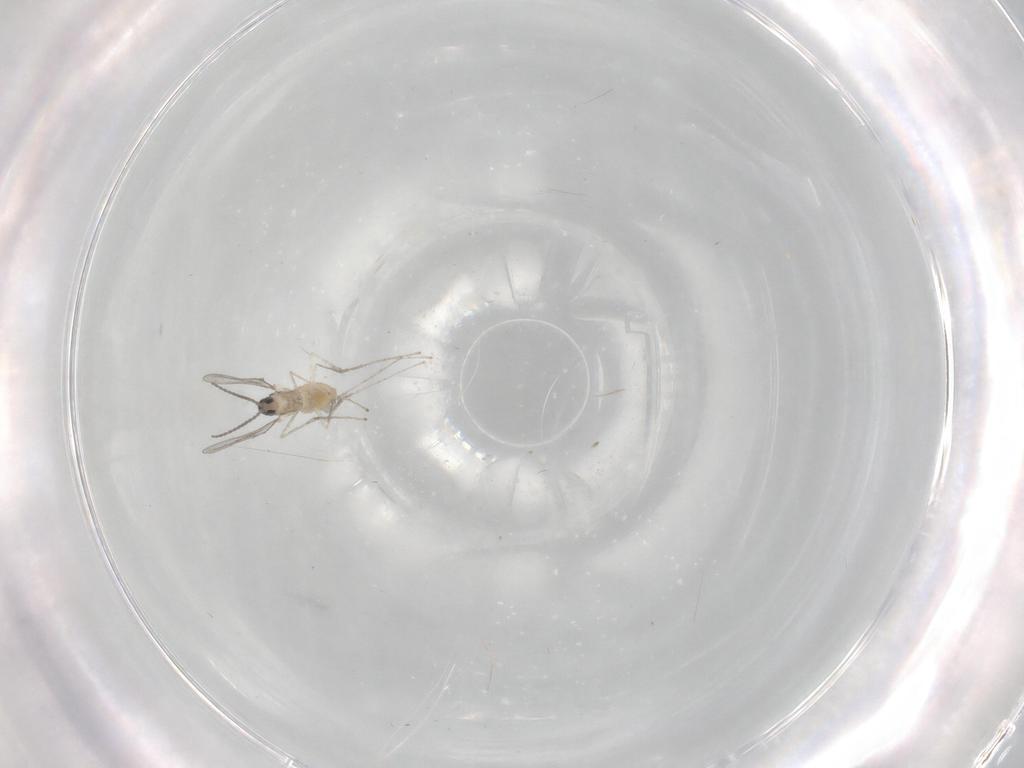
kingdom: Animalia
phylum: Arthropoda
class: Insecta
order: Diptera
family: Cecidomyiidae
